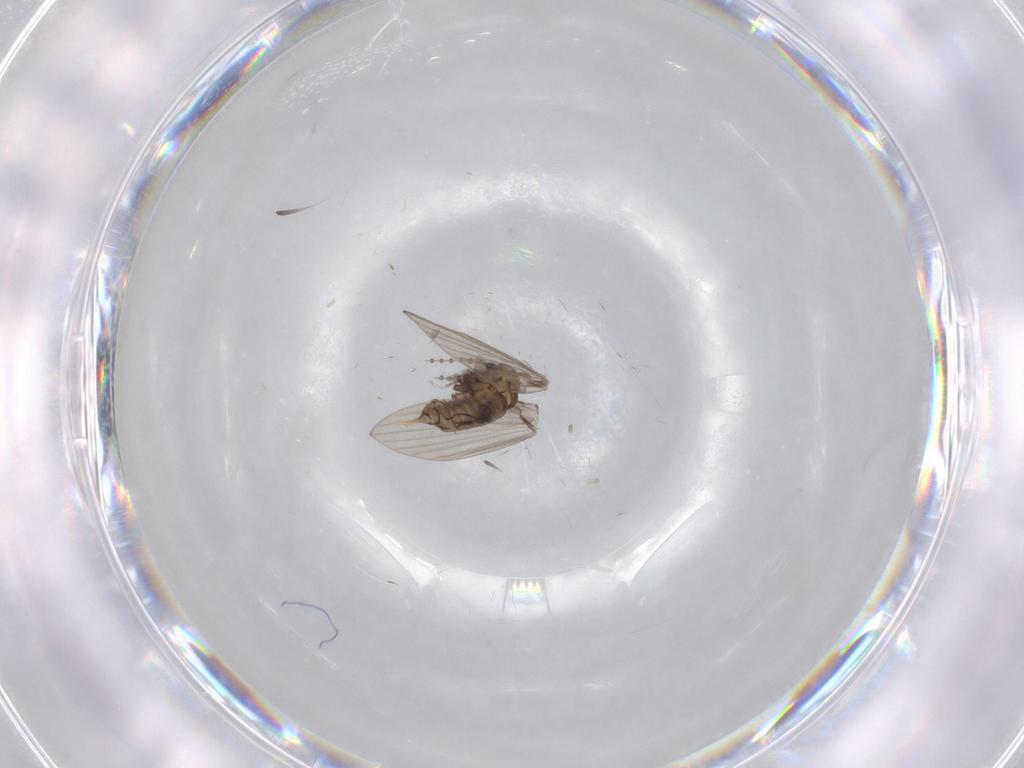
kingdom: Animalia
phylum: Arthropoda
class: Insecta
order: Diptera
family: Psychodidae
